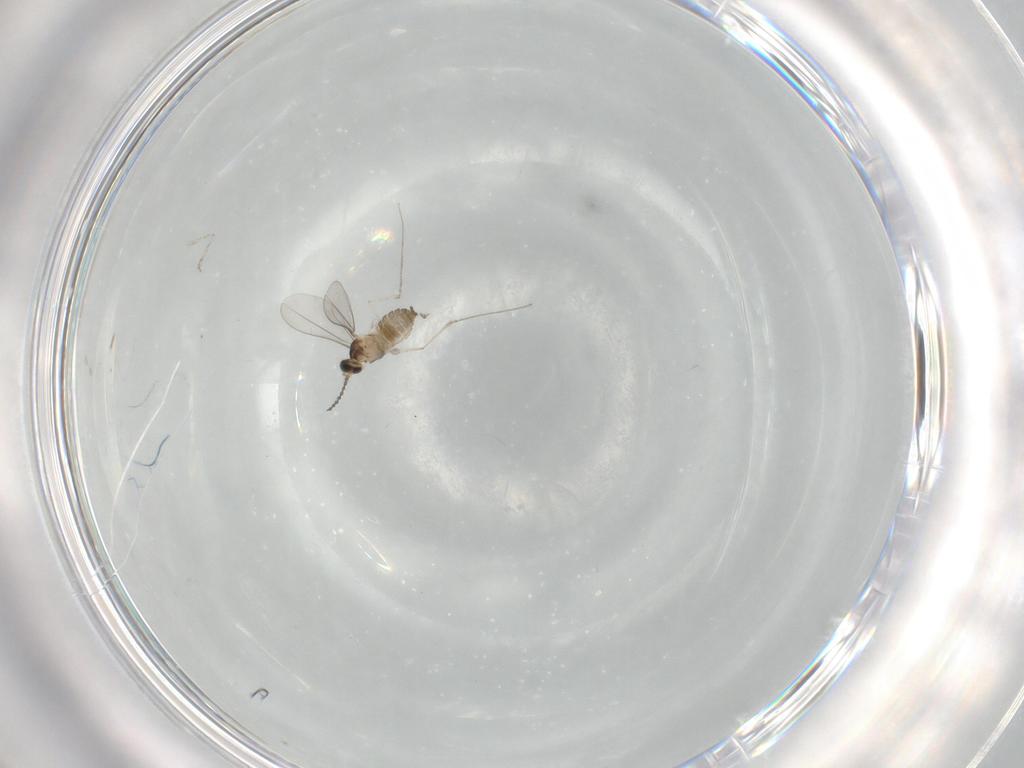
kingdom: Animalia
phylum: Arthropoda
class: Insecta
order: Diptera
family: Cecidomyiidae
